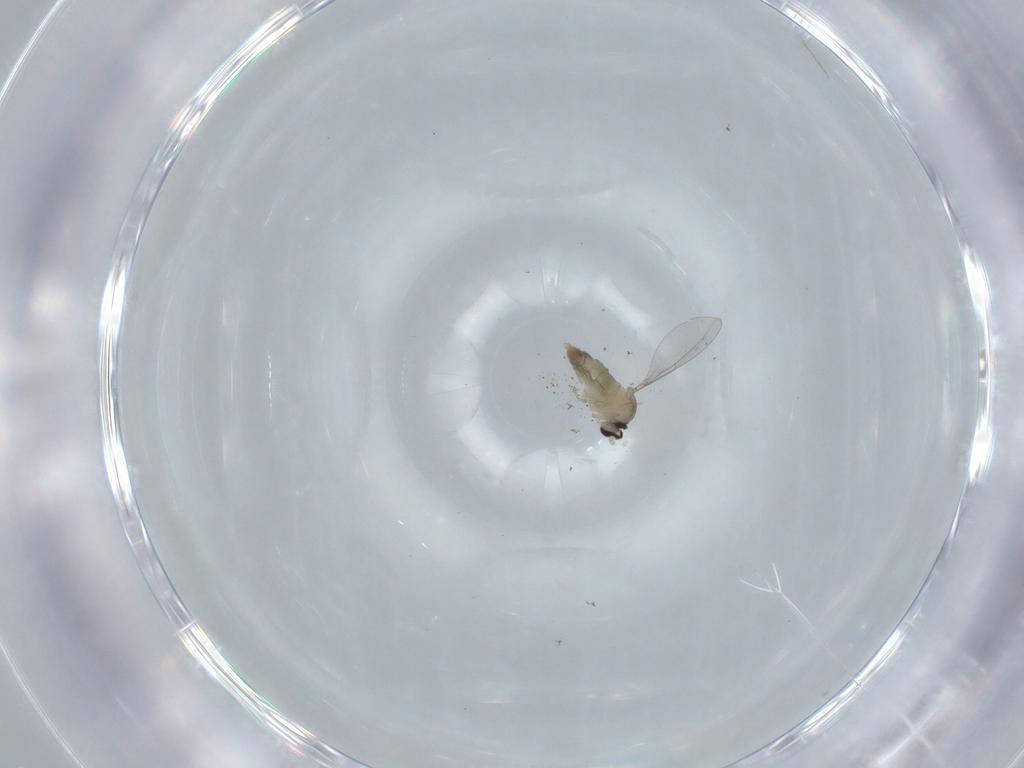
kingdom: Animalia
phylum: Arthropoda
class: Insecta
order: Diptera
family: Cecidomyiidae
